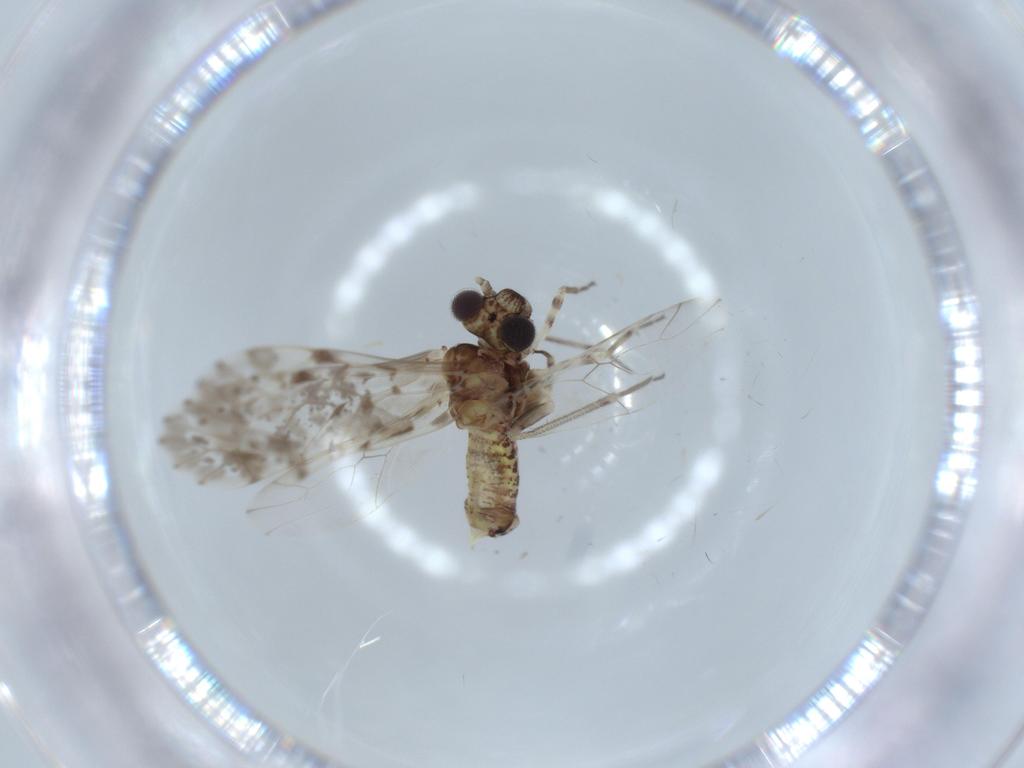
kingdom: Animalia
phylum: Arthropoda
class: Insecta
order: Psocodea
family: Psocidae
